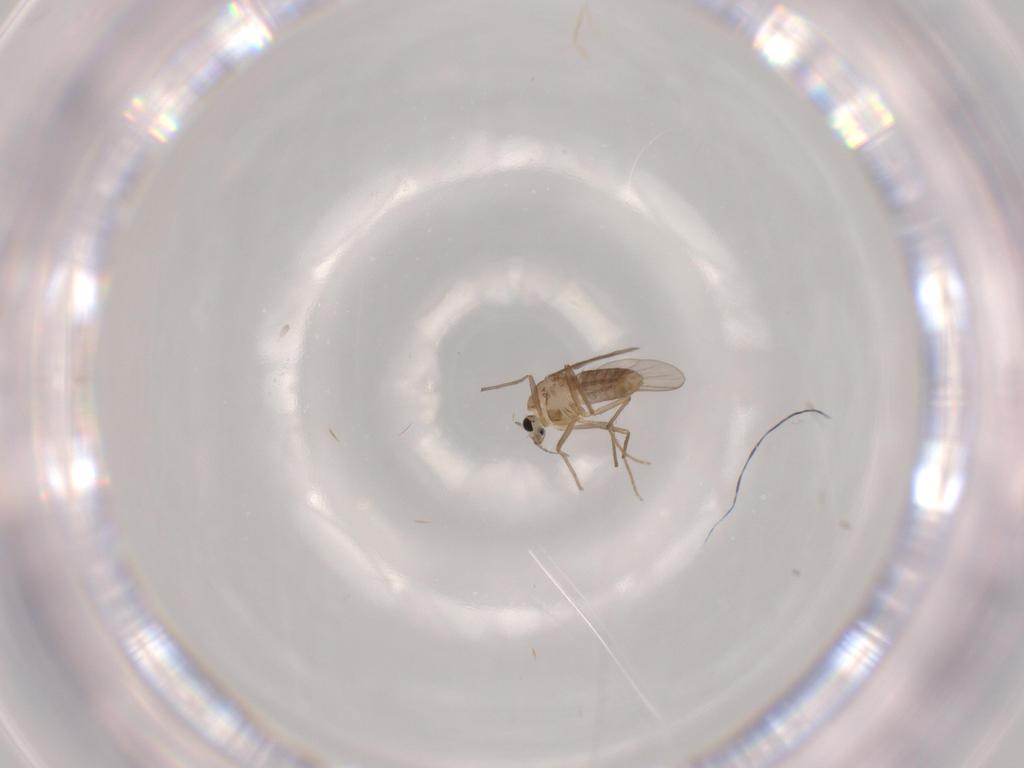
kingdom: Animalia
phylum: Arthropoda
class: Insecta
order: Diptera
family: Chironomidae
